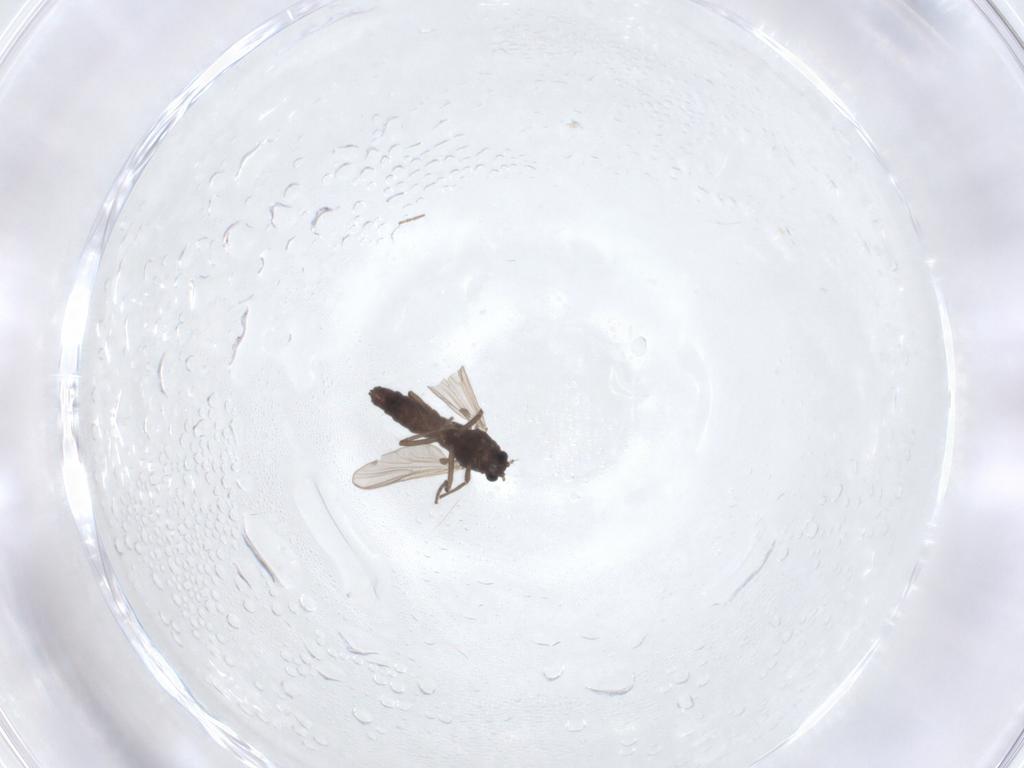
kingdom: Animalia
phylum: Arthropoda
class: Insecta
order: Diptera
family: Chironomidae
